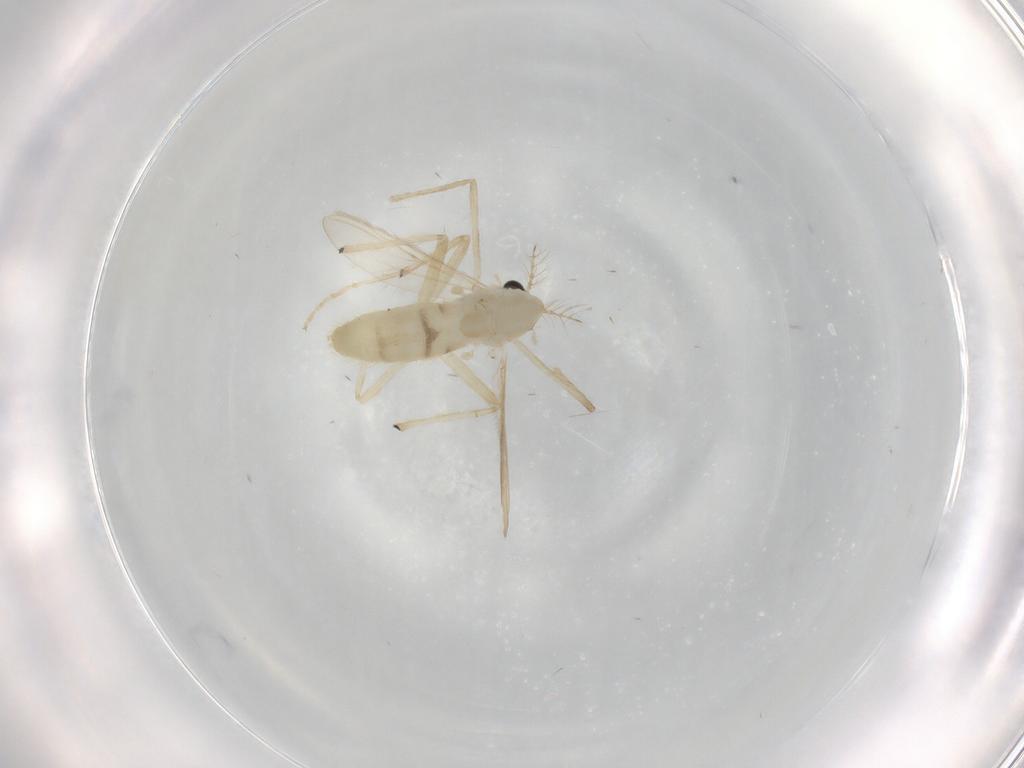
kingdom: Animalia
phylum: Arthropoda
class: Insecta
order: Diptera
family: Chironomidae
